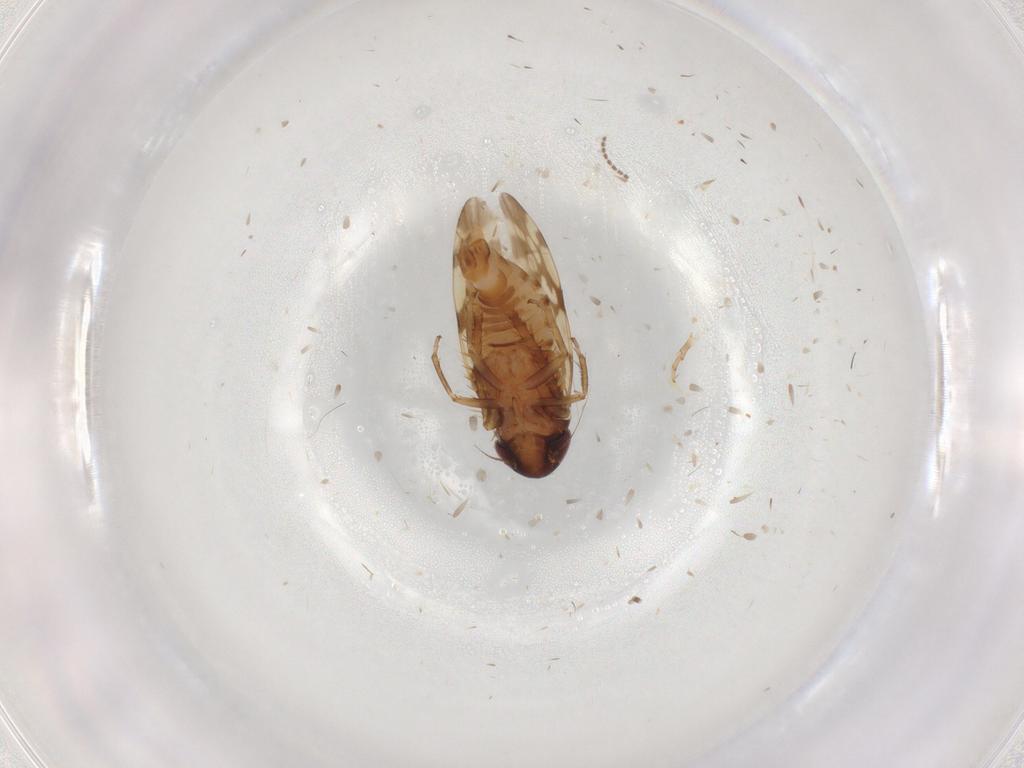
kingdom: Animalia
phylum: Arthropoda
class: Insecta
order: Hemiptera
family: Cicadellidae
